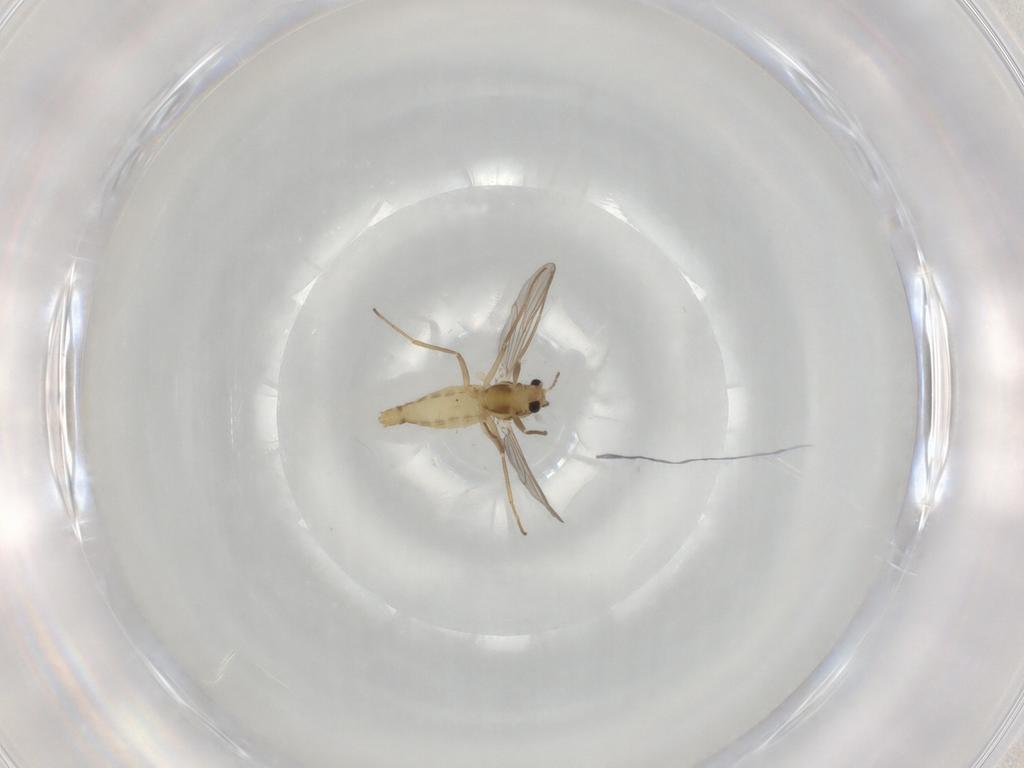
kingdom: Animalia
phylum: Arthropoda
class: Insecta
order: Diptera
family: Chironomidae
